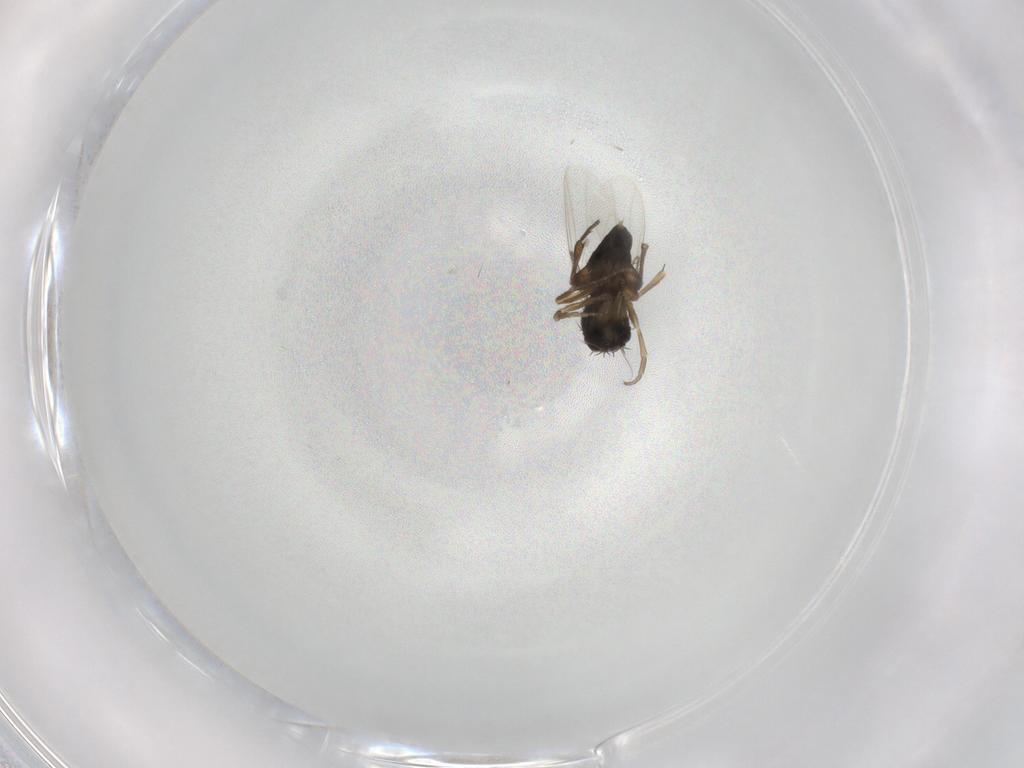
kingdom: Animalia
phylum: Arthropoda
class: Insecta
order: Diptera
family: Phoridae
